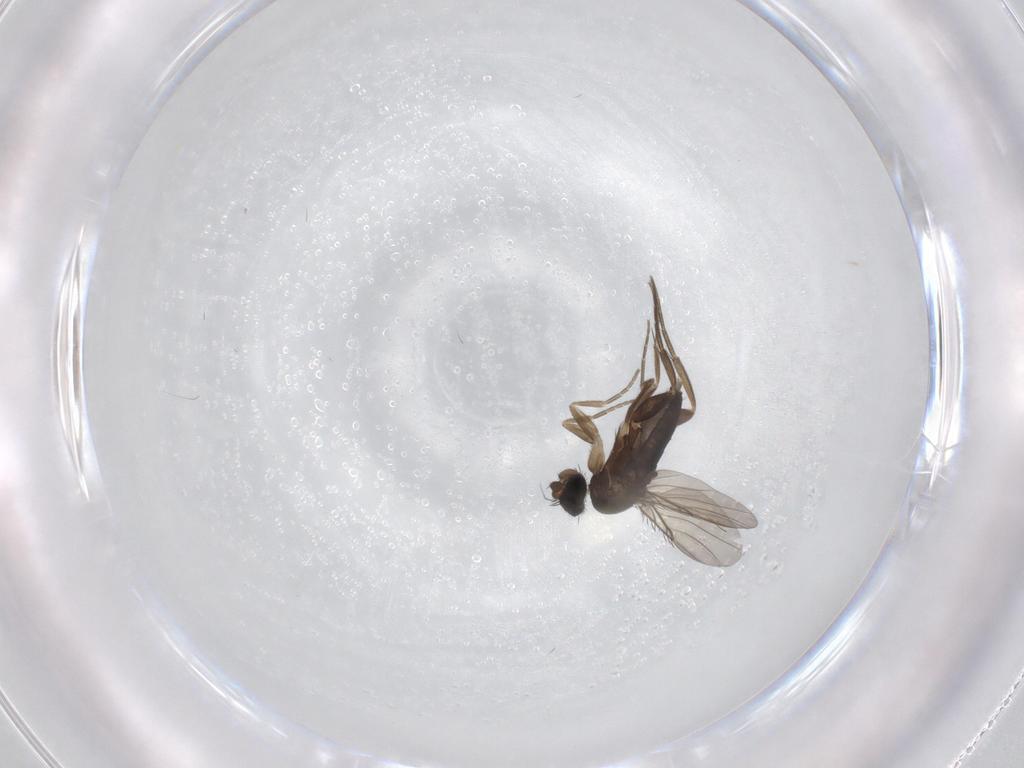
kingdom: Animalia
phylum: Arthropoda
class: Insecta
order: Diptera
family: Phoridae
